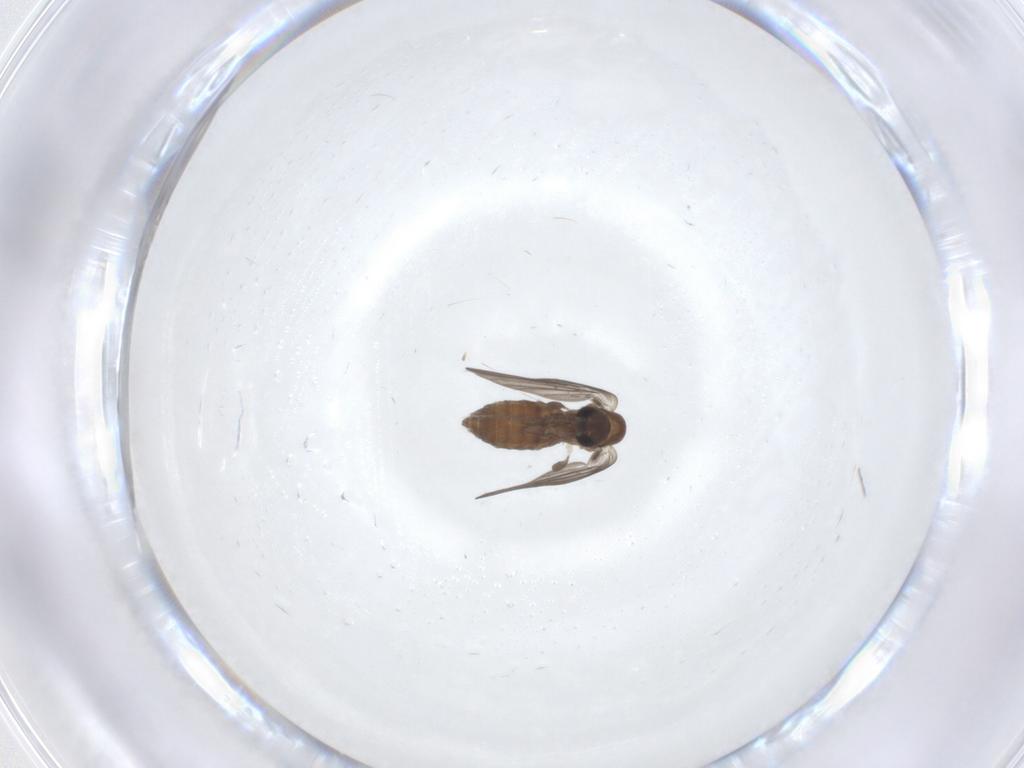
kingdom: Animalia
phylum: Arthropoda
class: Insecta
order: Diptera
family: Psychodidae
